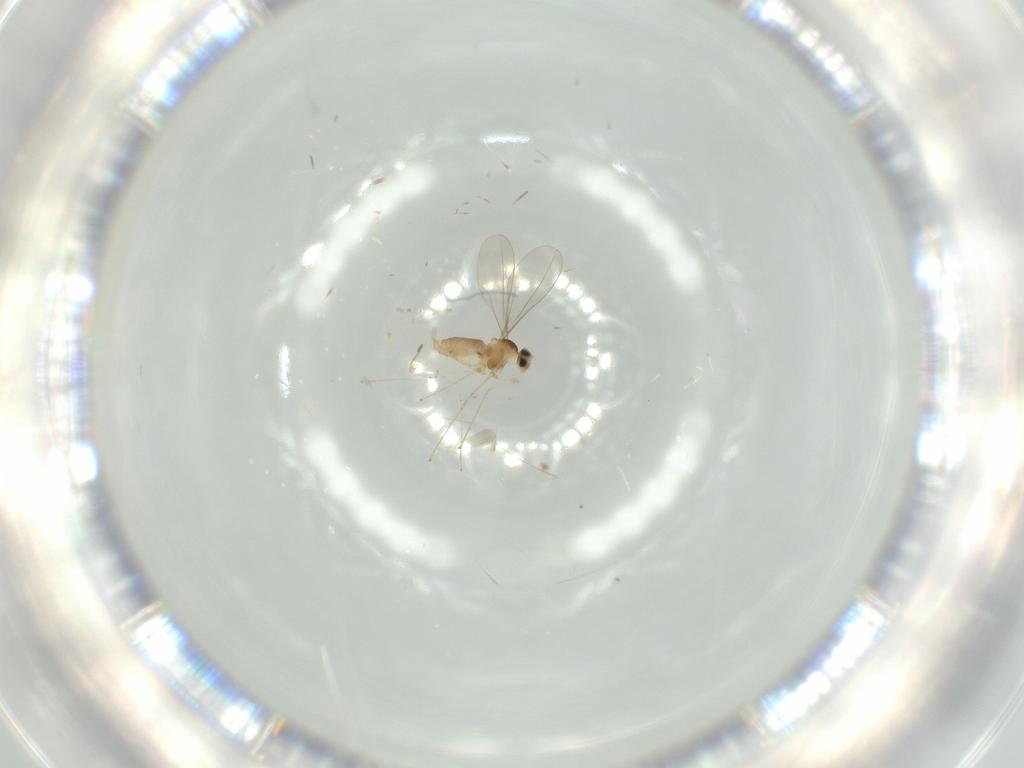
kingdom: Animalia
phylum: Arthropoda
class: Insecta
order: Diptera
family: Cecidomyiidae
